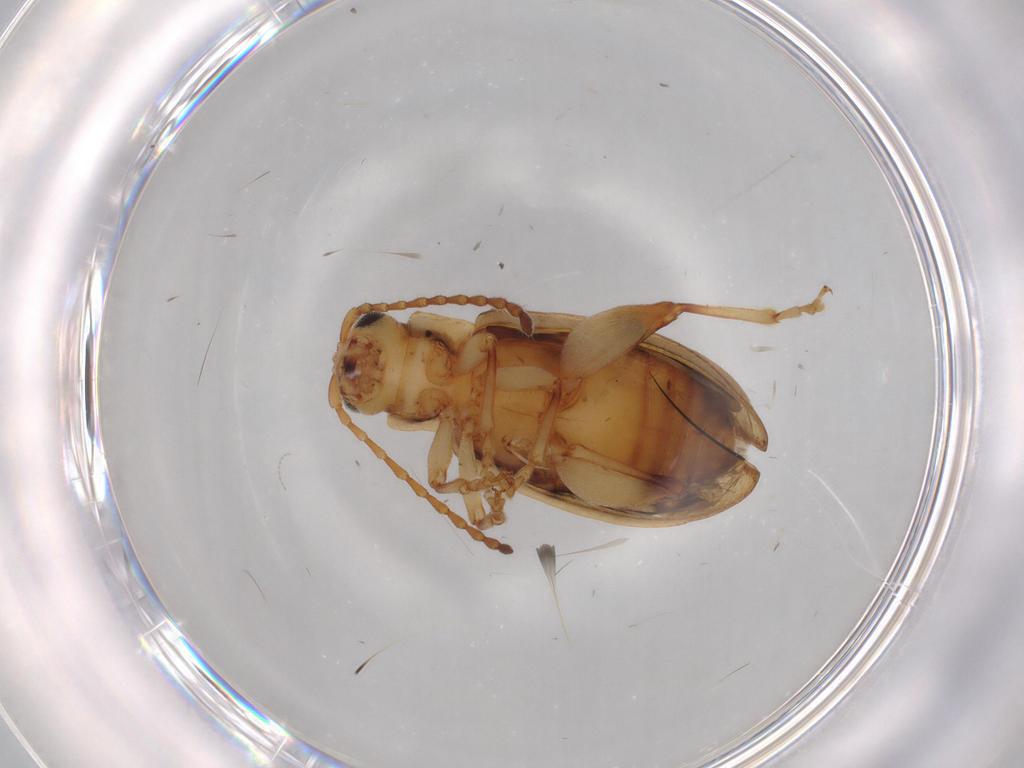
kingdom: Animalia
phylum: Arthropoda
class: Insecta
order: Coleoptera
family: Chrysomelidae
